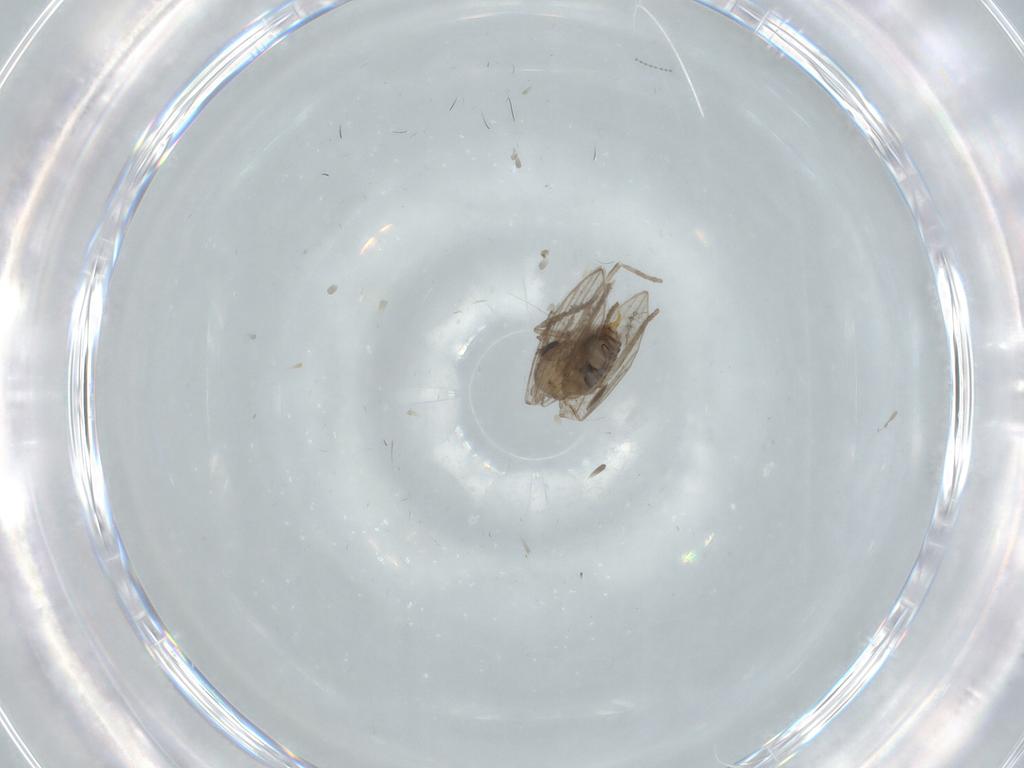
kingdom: Animalia
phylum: Arthropoda
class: Insecta
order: Diptera
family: Psychodidae
